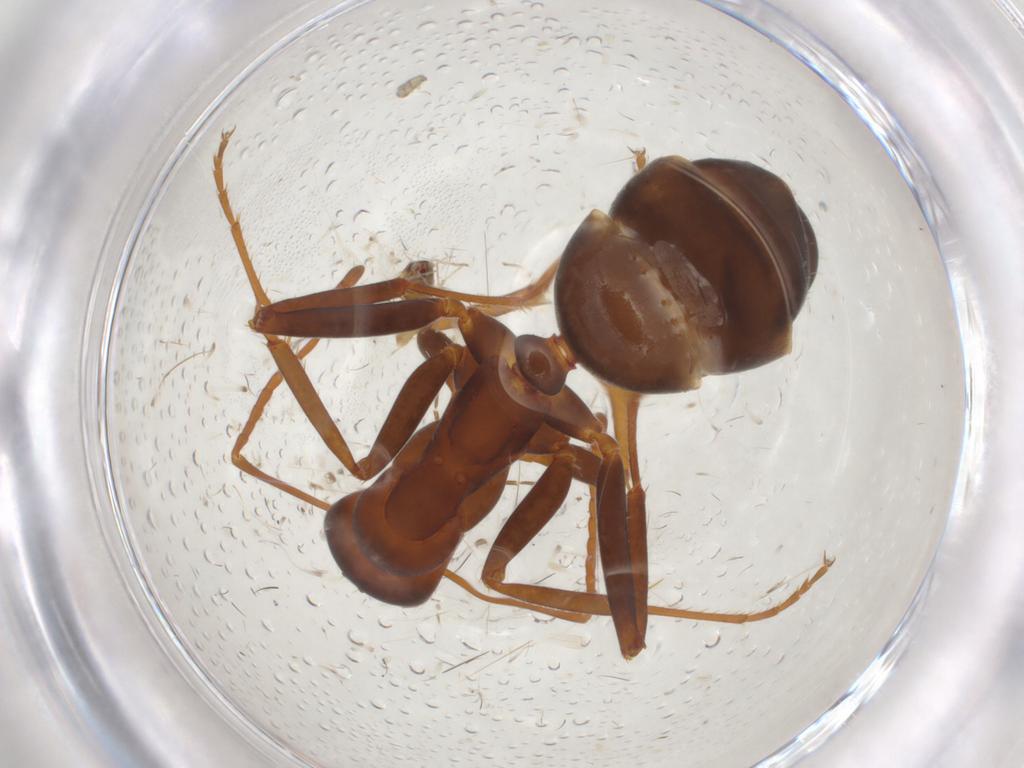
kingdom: Animalia
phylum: Arthropoda
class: Insecta
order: Hymenoptera
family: Formicidae
